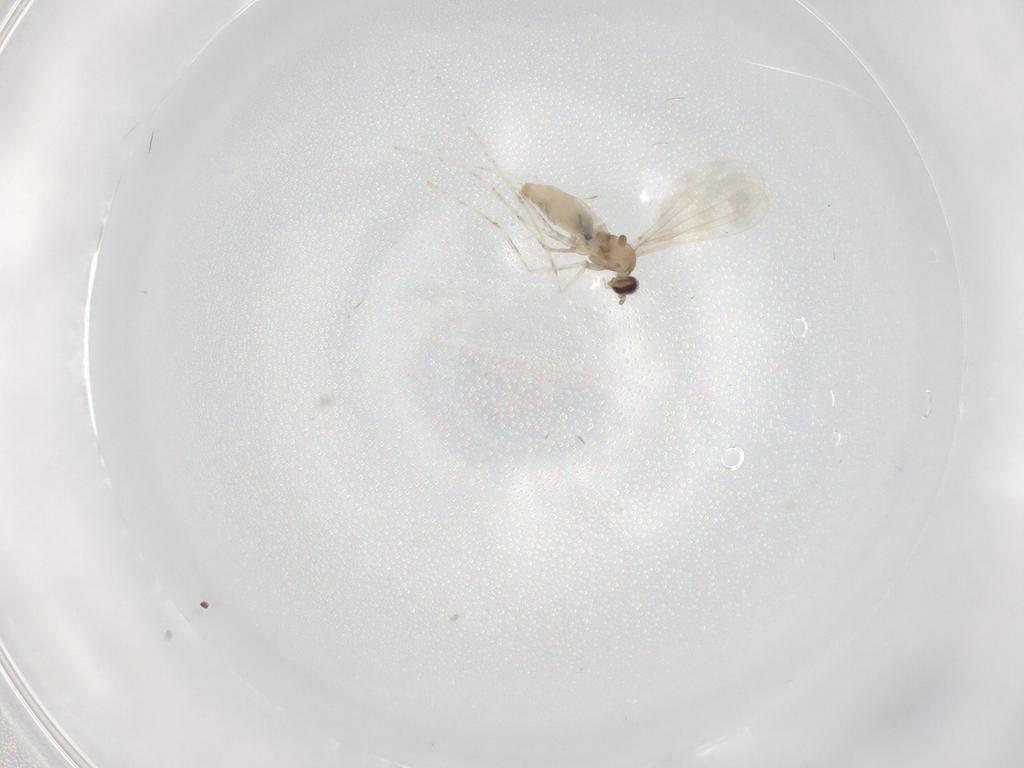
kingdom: Animalia
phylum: Arthropoda
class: Insecta
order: Diptera
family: Cecidomyiidae
